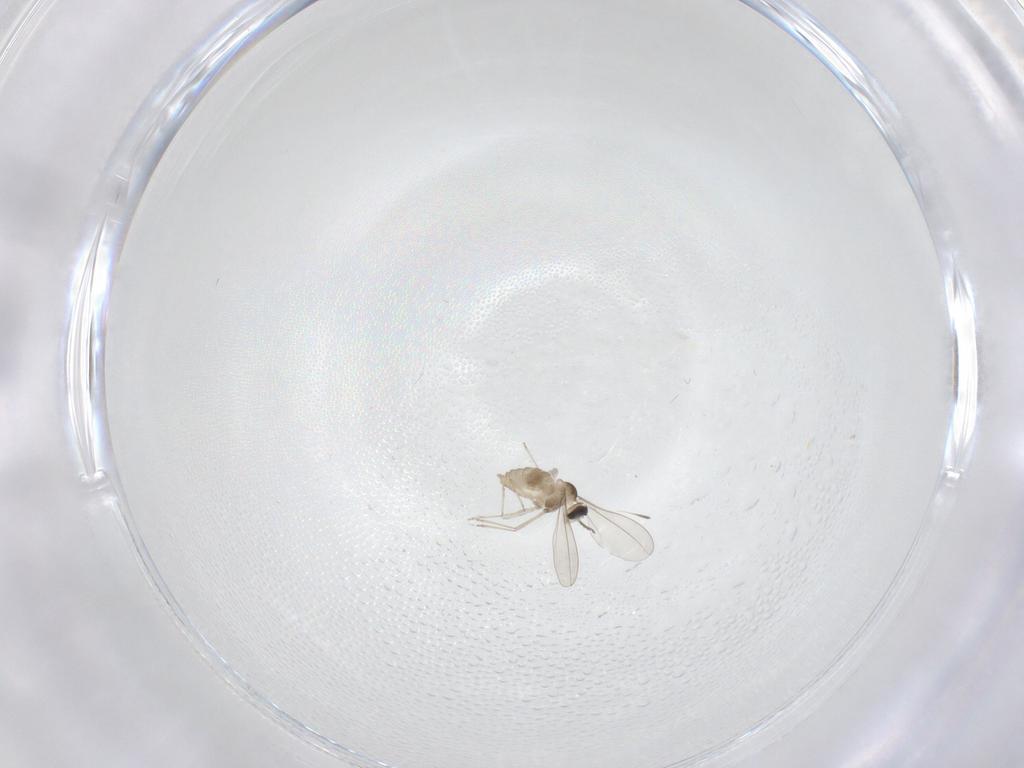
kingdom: Animalia
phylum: Arthropoda
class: Insecta
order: Diptera
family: Cecidomyiidae
